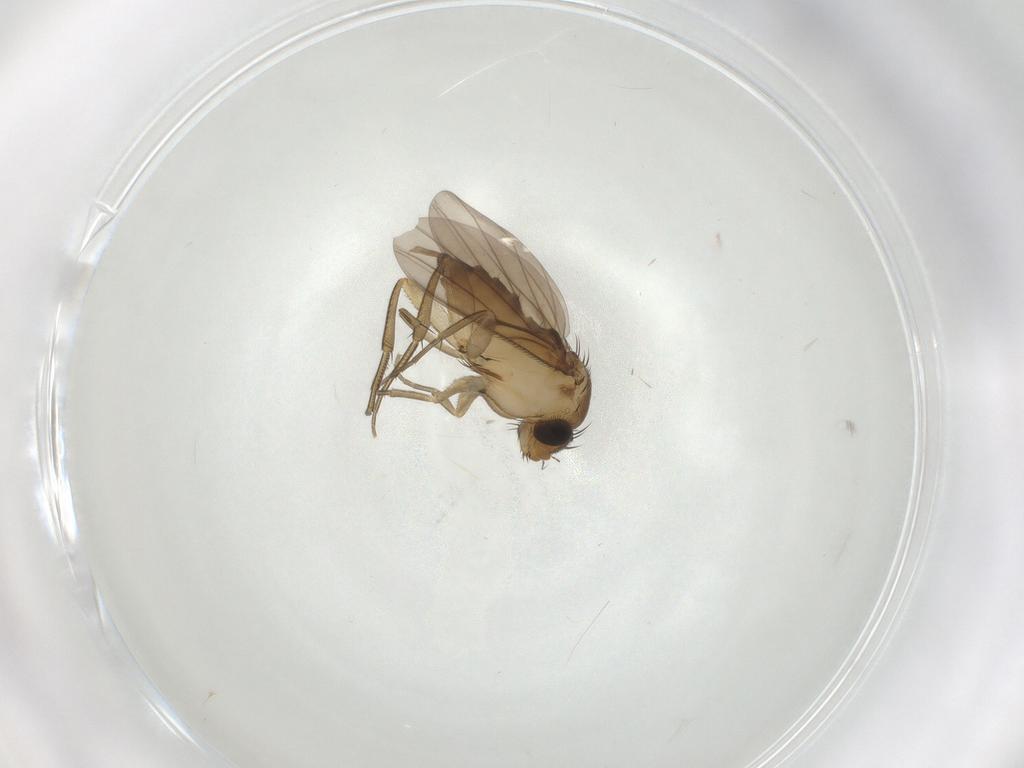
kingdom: Animalia
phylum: Arthropoda
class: Insecta
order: Diptera
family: Phoridae
